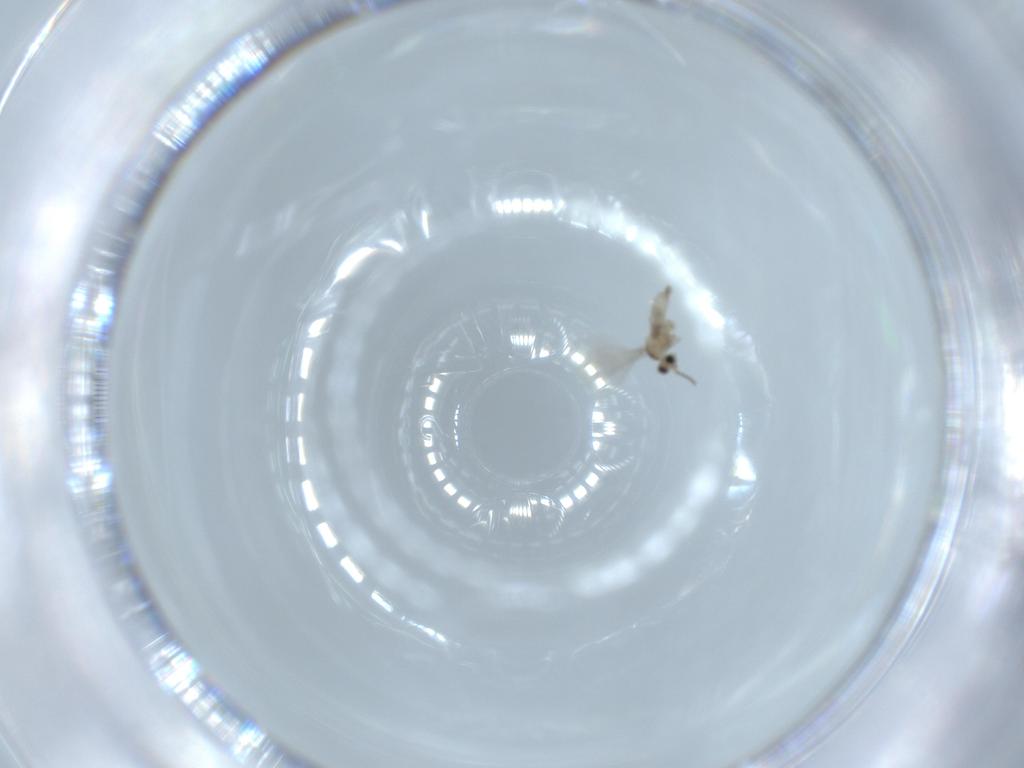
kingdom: Animalia
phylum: Arthropoda
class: Insecta
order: Diptera
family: Cecidomyiidae
